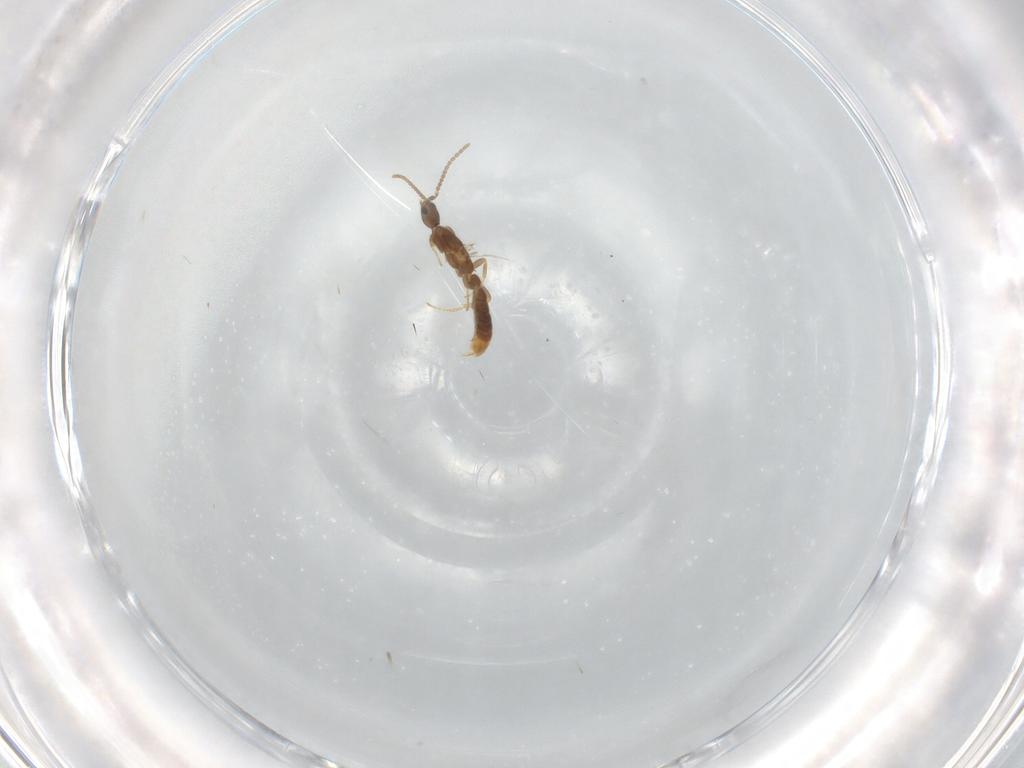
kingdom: Animalia
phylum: Arthropoda
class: Insecta
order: Hymenoptera
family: Formicidae
